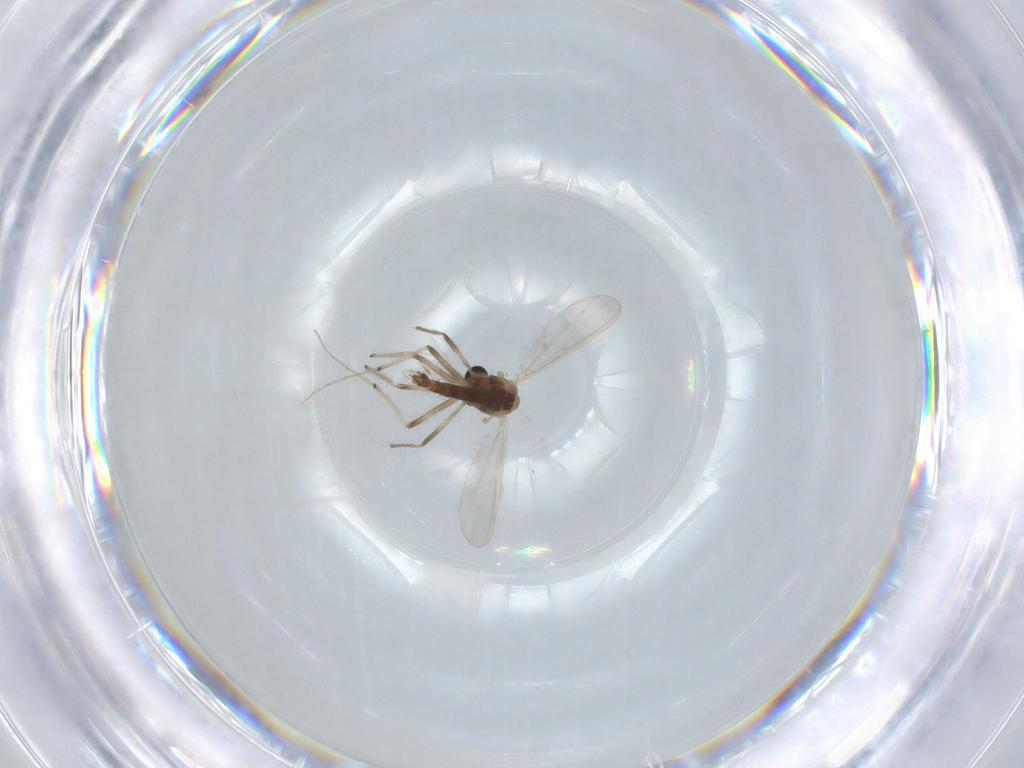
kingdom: Animalia
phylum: Arthropoda
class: Insecta
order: Diptera
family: Chironomidae
